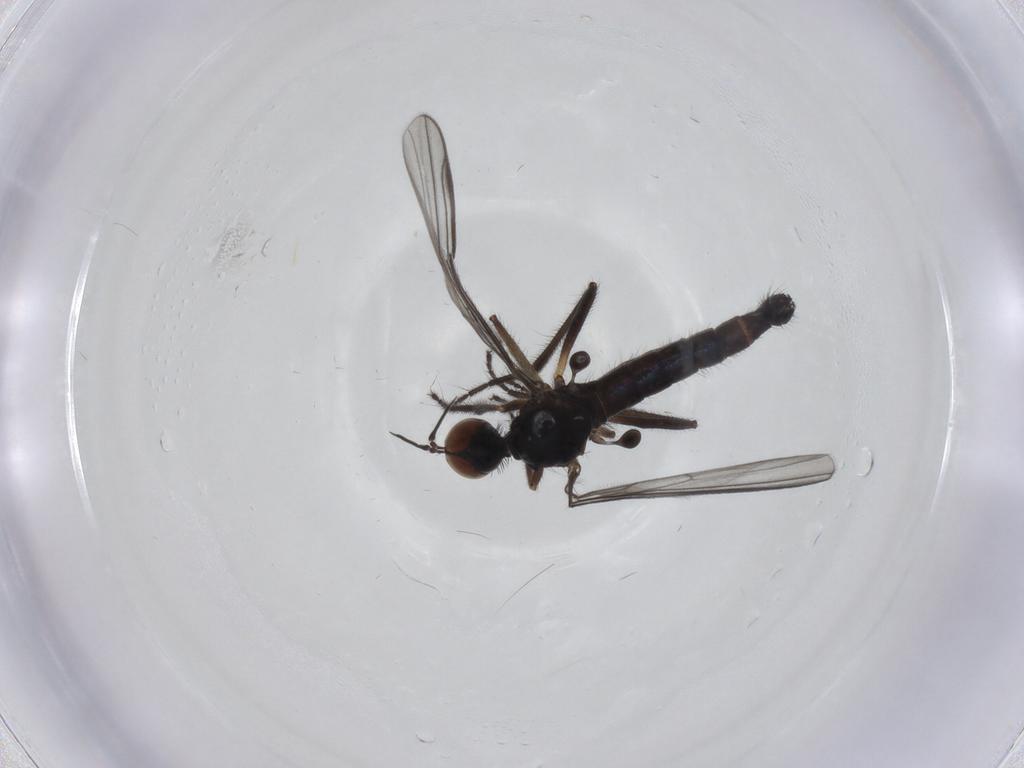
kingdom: Animalia
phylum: Arthropoda
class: Insecta
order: Diptera
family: Empididae
